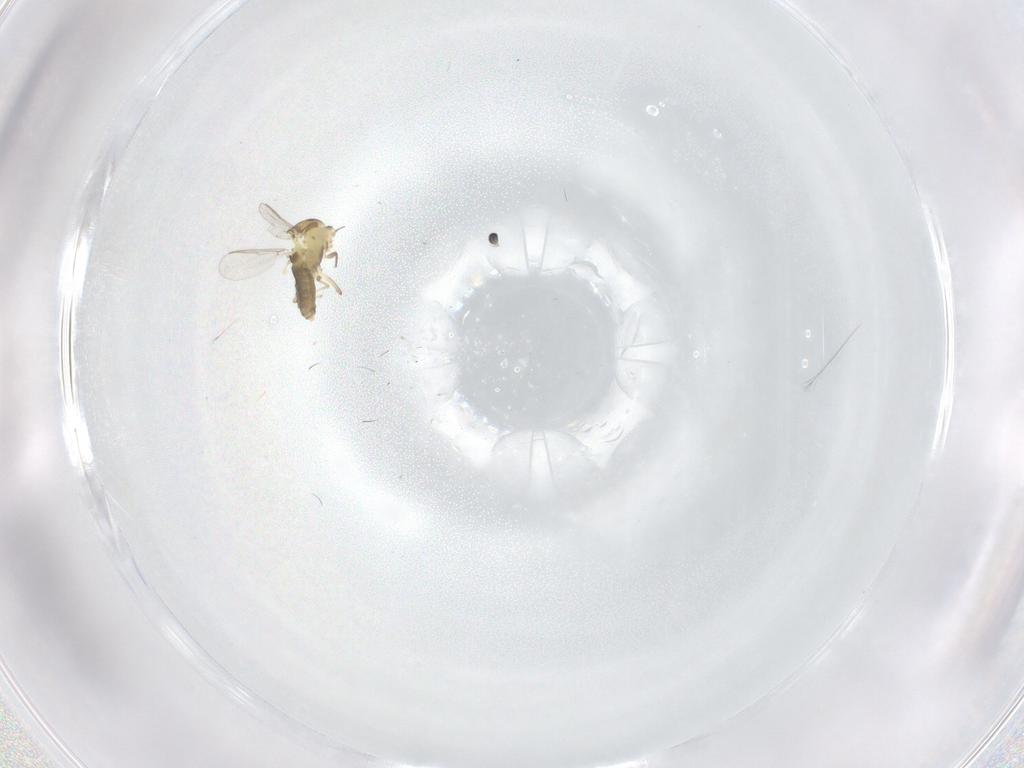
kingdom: Animalia
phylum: Arthropoda
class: Insecta
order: Diptera
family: Chironomidae
